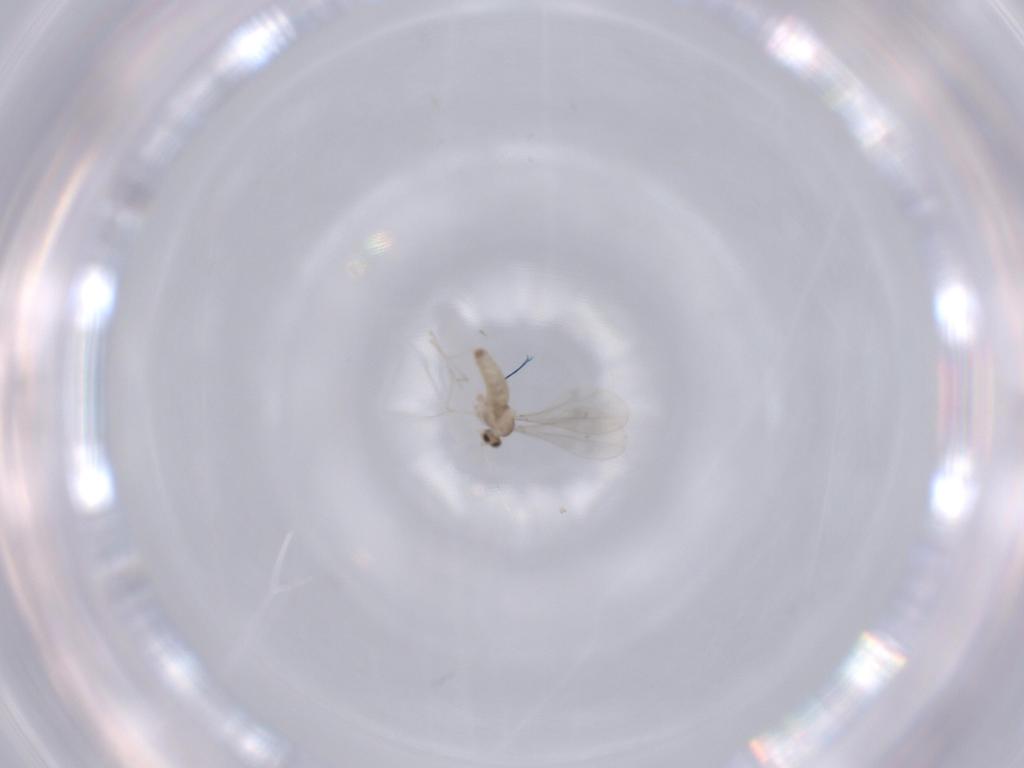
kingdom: Animalia
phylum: Arthropoda
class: Insecta
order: Diptera
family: Cecidomyiidae
